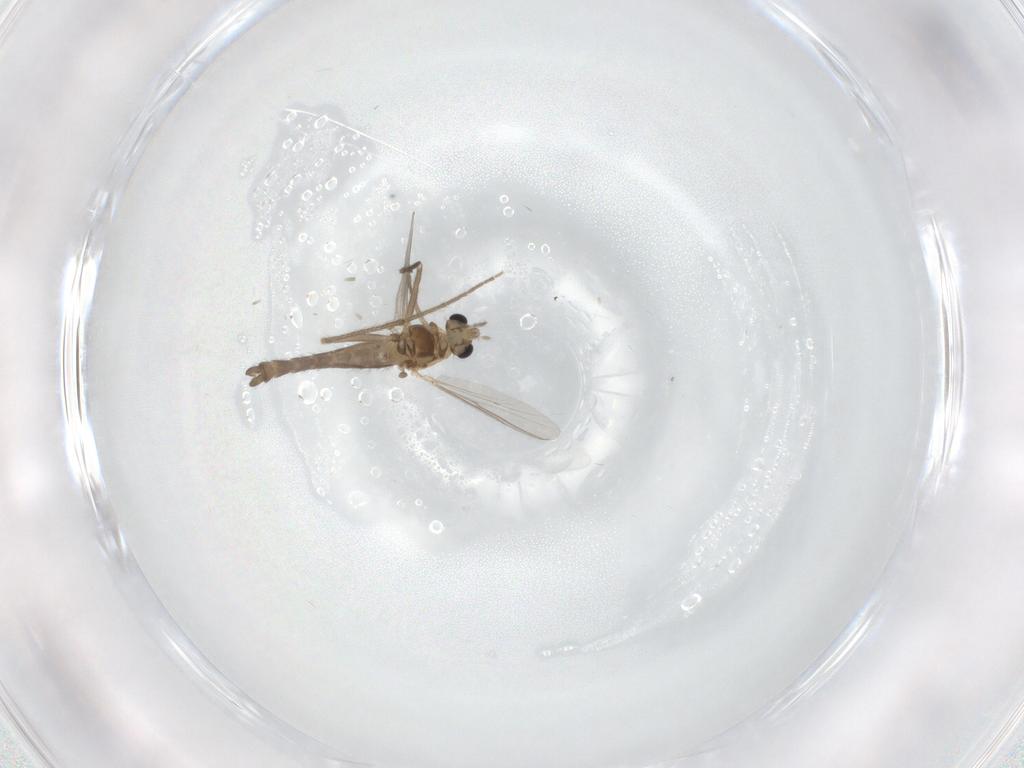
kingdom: Animalia
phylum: Arthropoda
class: Insecta
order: Diptera
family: Chironomidae
